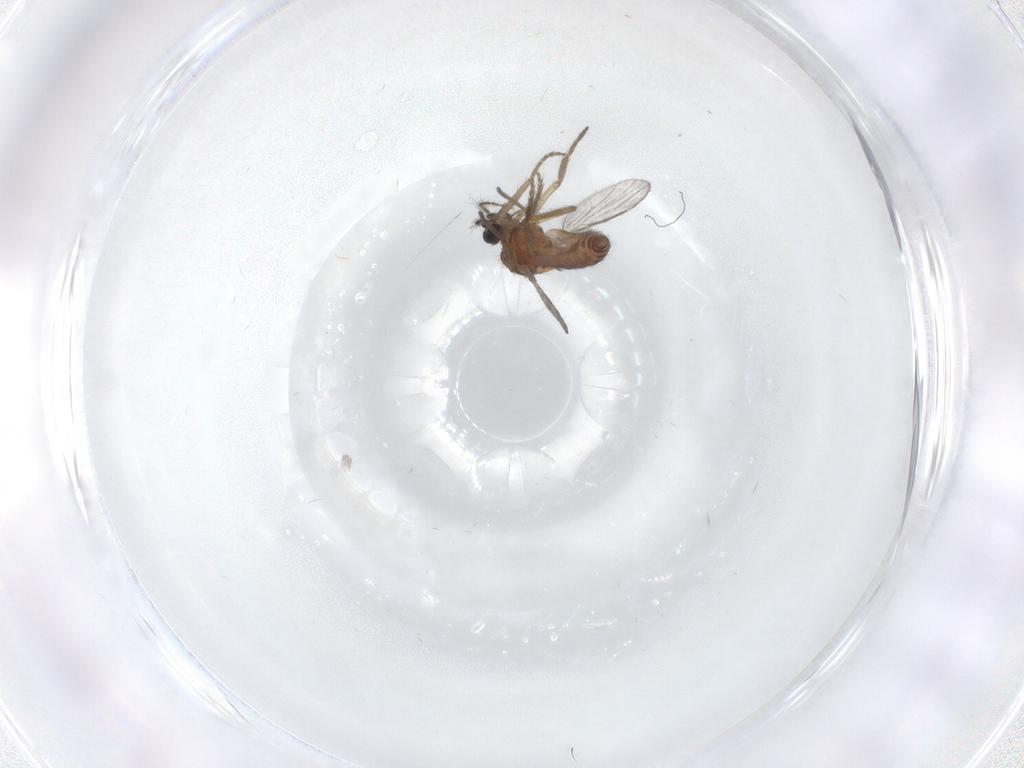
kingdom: Animalia
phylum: Arthropoda
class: Insecta
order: Diptera
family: Ceratopogonidae
